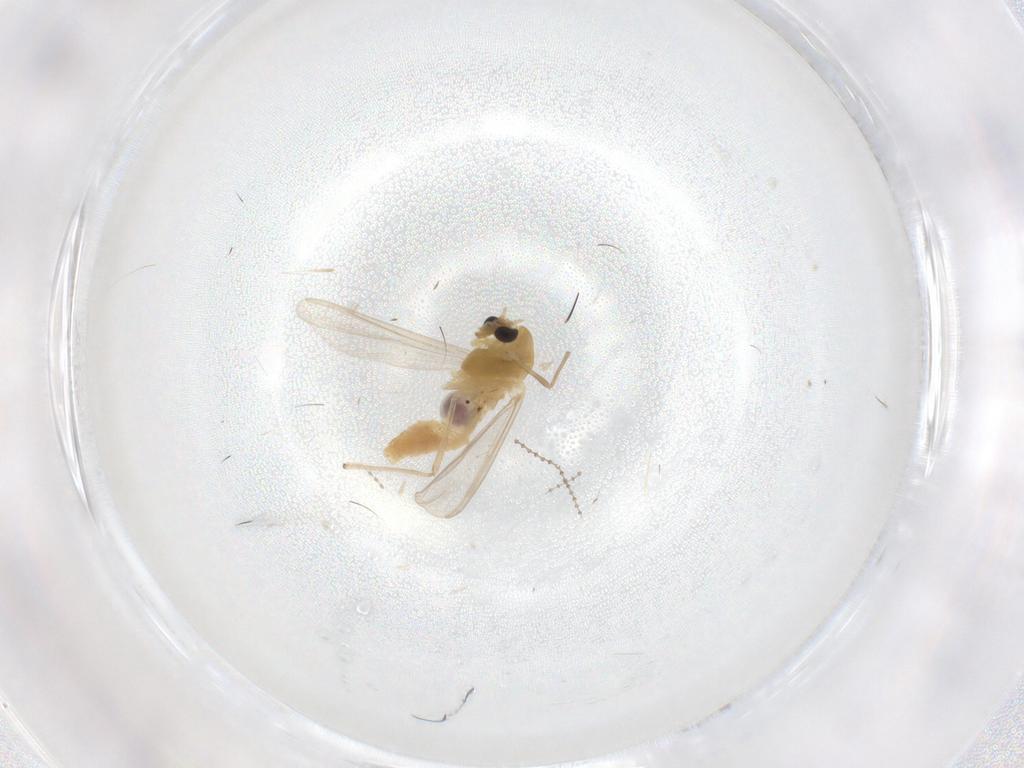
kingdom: Animalia
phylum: Arthropoda
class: Insecta
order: Diptera
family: Chironomidae
